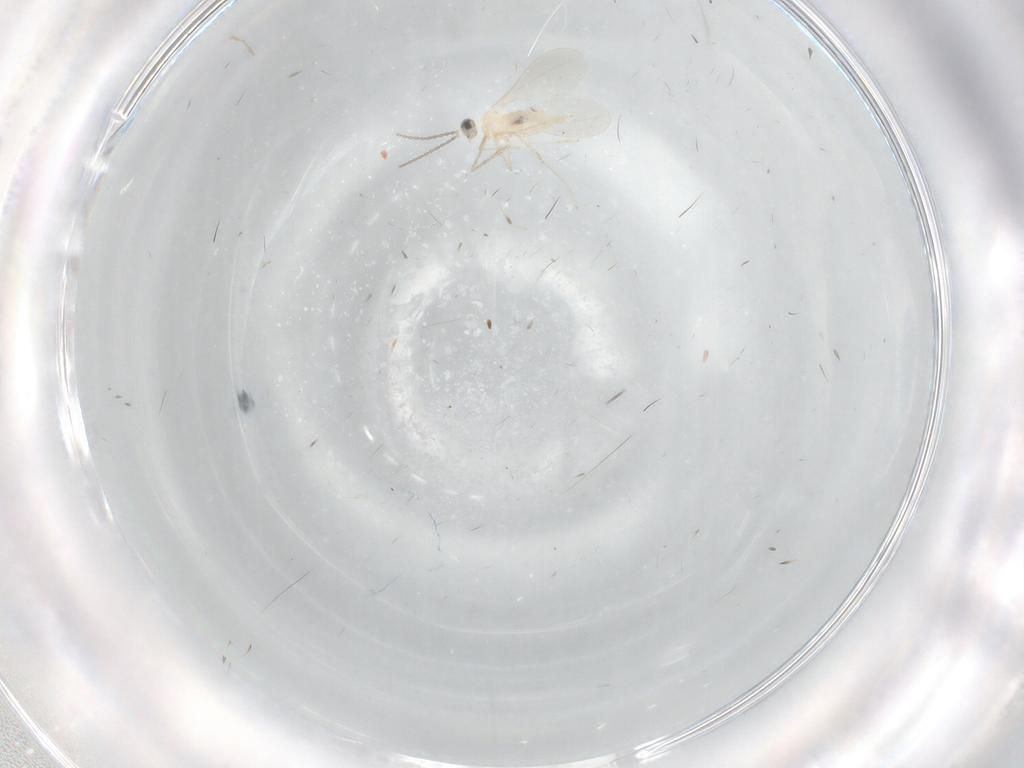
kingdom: Animalia
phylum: Arthropoda
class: Insecta
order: Diptera
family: Cecidomyiidae
